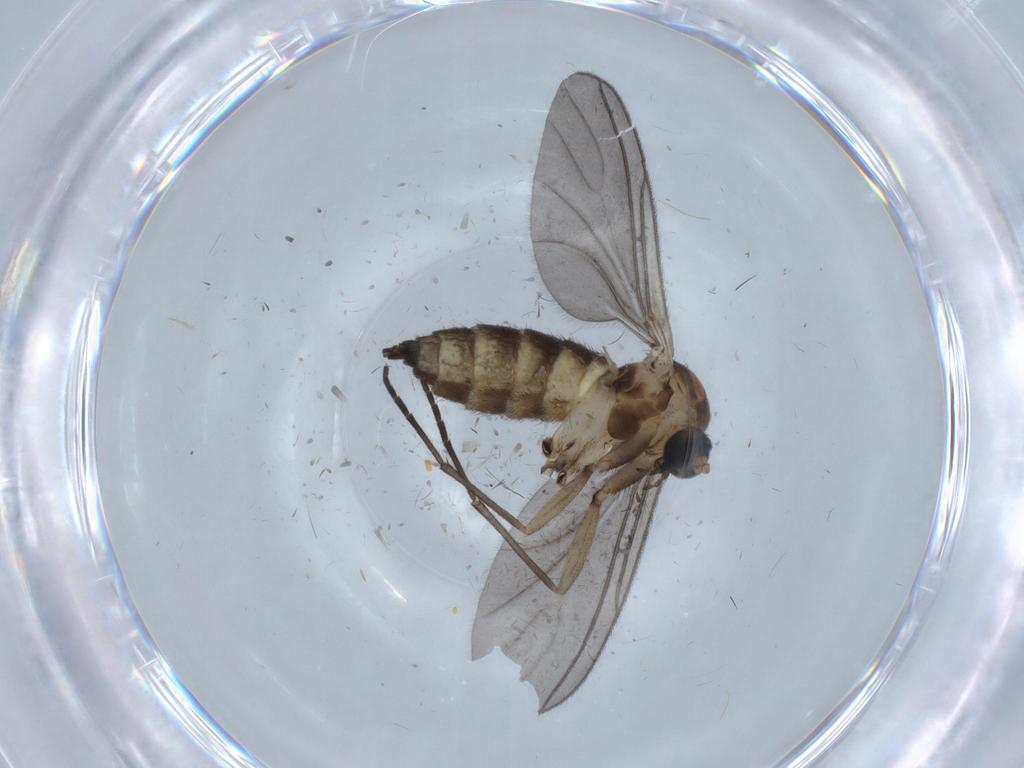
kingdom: Animalia
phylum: Arthropoda
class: Insecta
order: Diptera
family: Sciaridae
